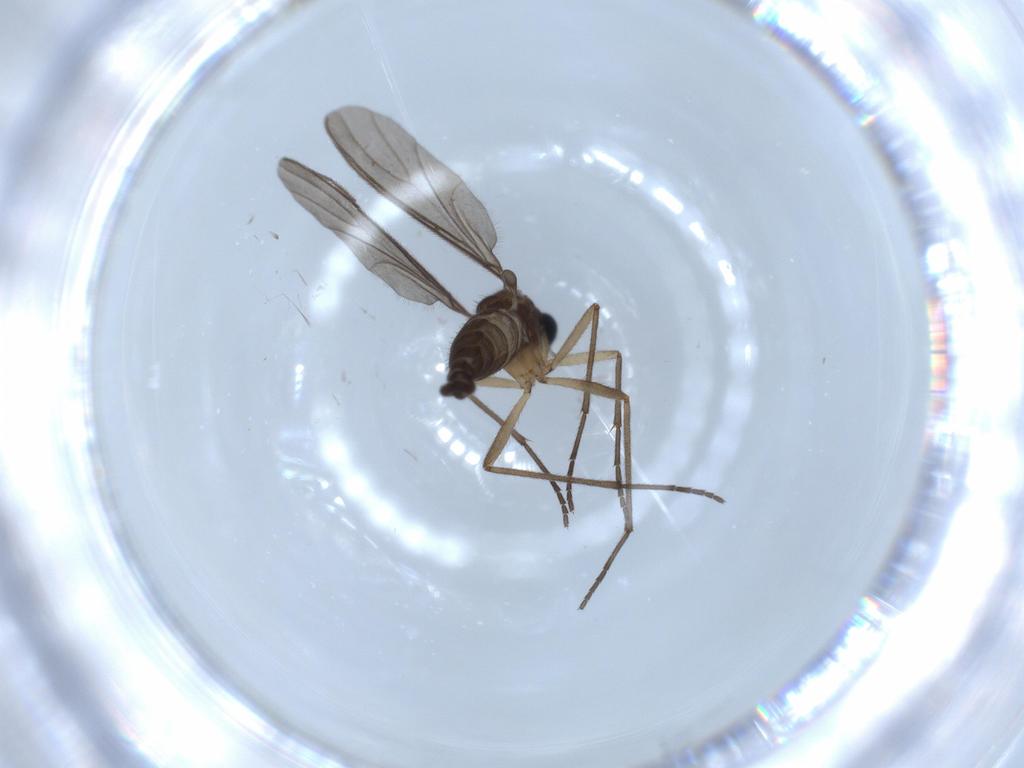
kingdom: Animalia
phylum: Arthropoda
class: Insecta
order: Diptera
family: Sciaridae
